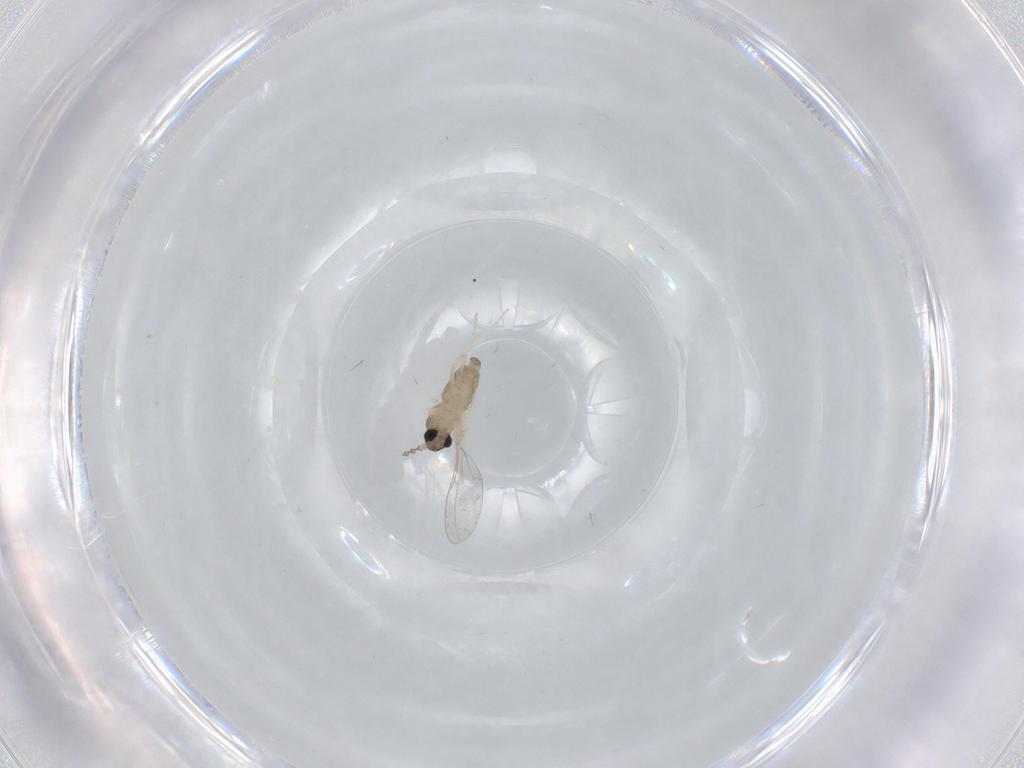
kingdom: Animalia
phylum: Arthropoda
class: Insecta
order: Diptera
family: Cecidomyiidae
